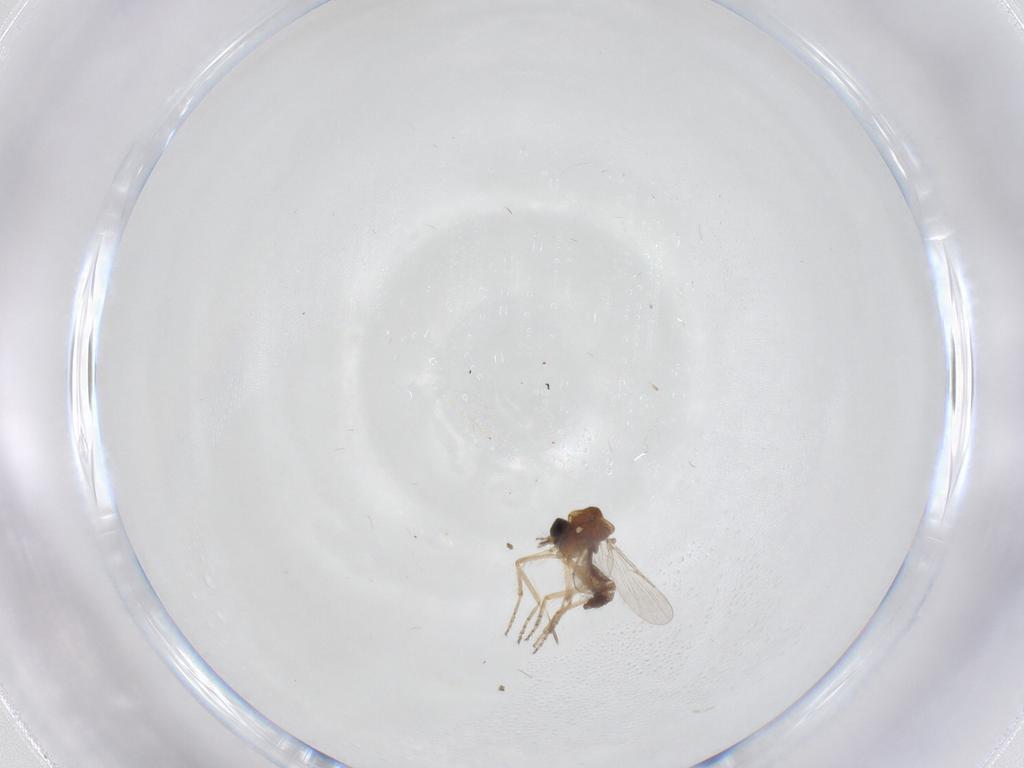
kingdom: Animalia
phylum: Arthropoda
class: Insecta
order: Diptera
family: Ceratopogonidae
